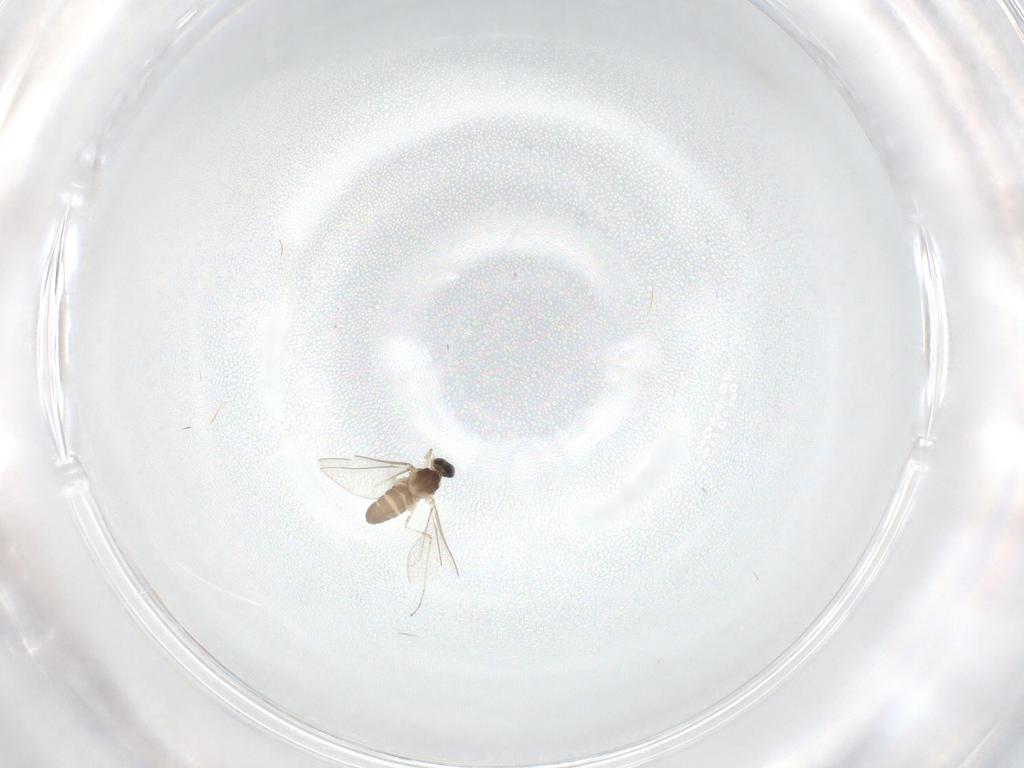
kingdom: Animalia
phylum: Arthropoda
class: Insecta
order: Diptera
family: Cecidomyiidae
